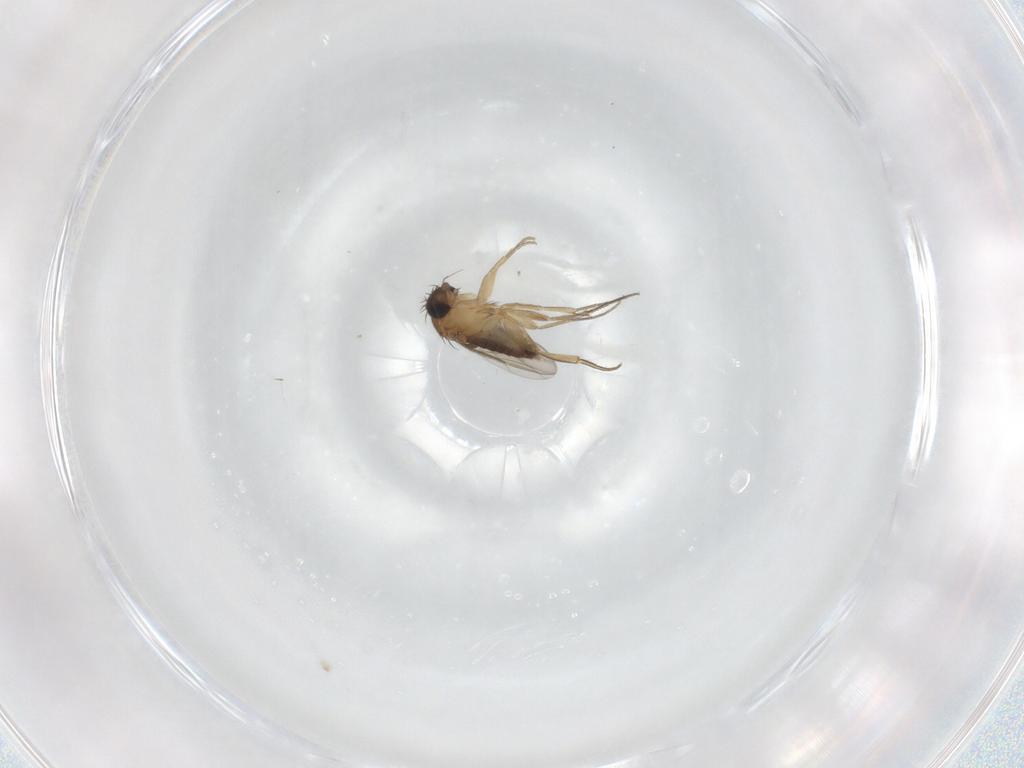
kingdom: Animalia
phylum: Arthropoda
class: Insecta
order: Diptera
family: Phoridae
